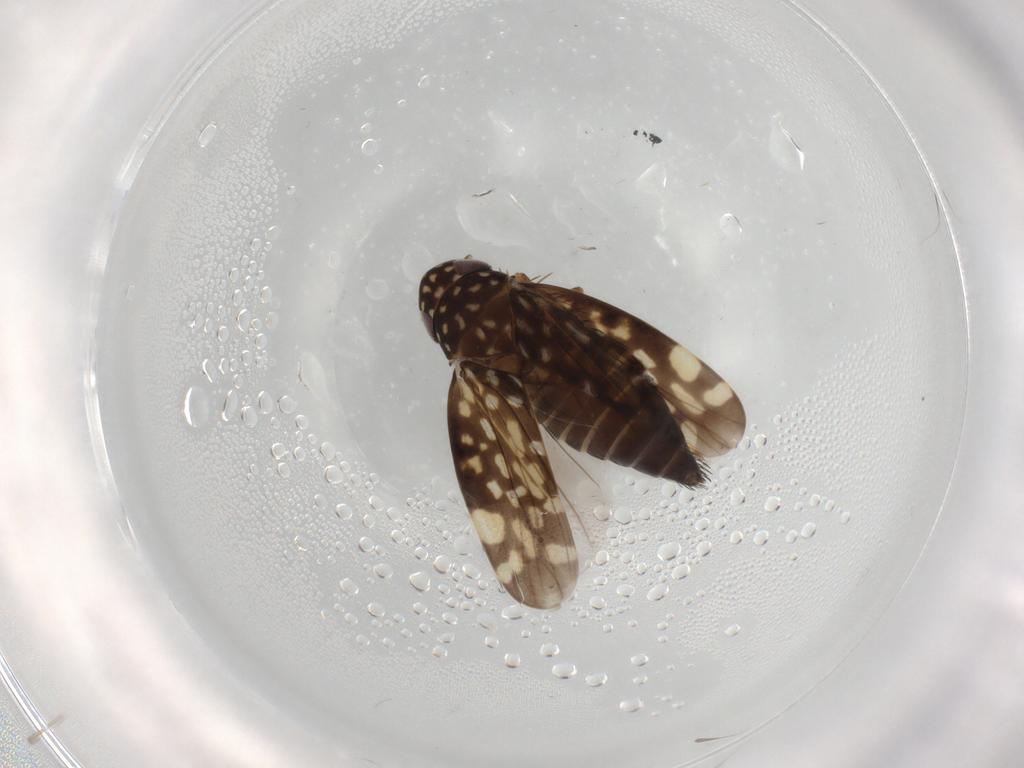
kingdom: Animalia
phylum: Arthropoda
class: Insecta
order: Hemiptera
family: Cicadellidae
